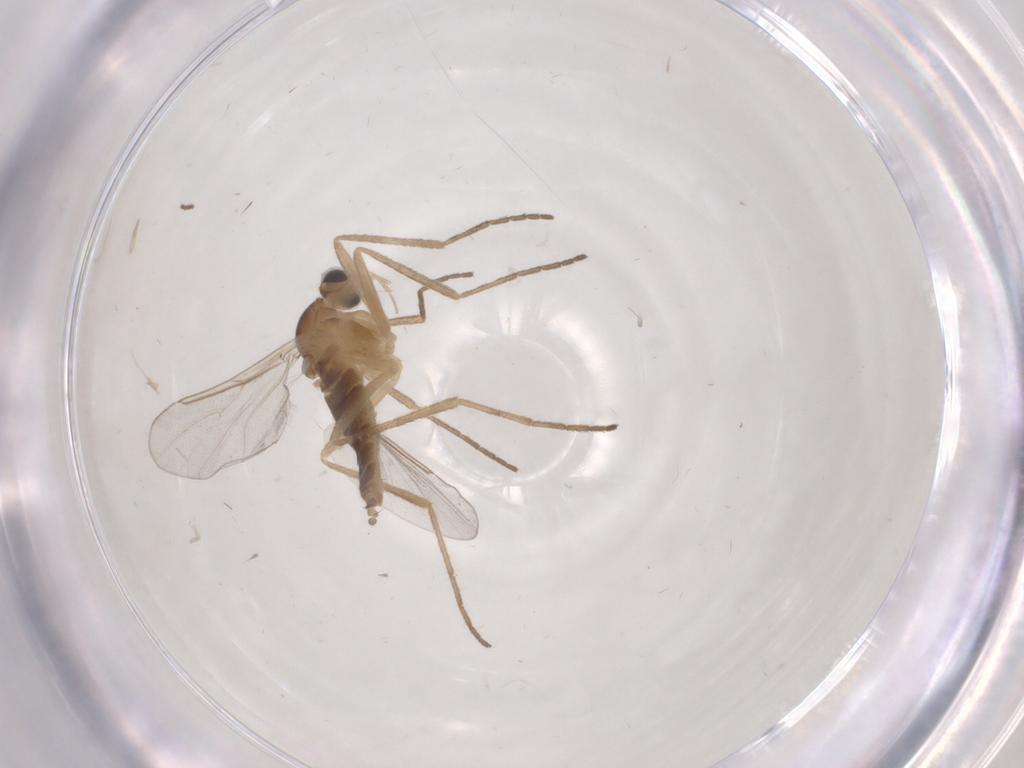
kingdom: Animalia
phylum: Arthropoda
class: Insecta
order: Diptera
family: Cecidomyiidae
